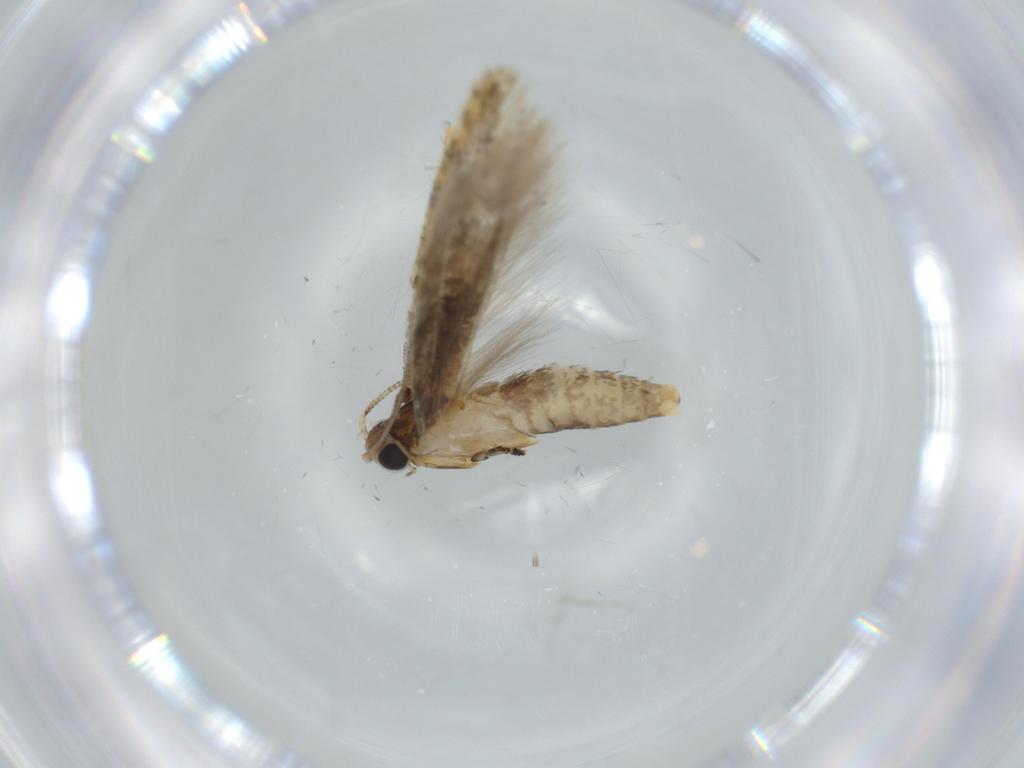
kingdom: Animalia
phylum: Arthropoda
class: Insecta
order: Lepidoptera
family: Tineidae
